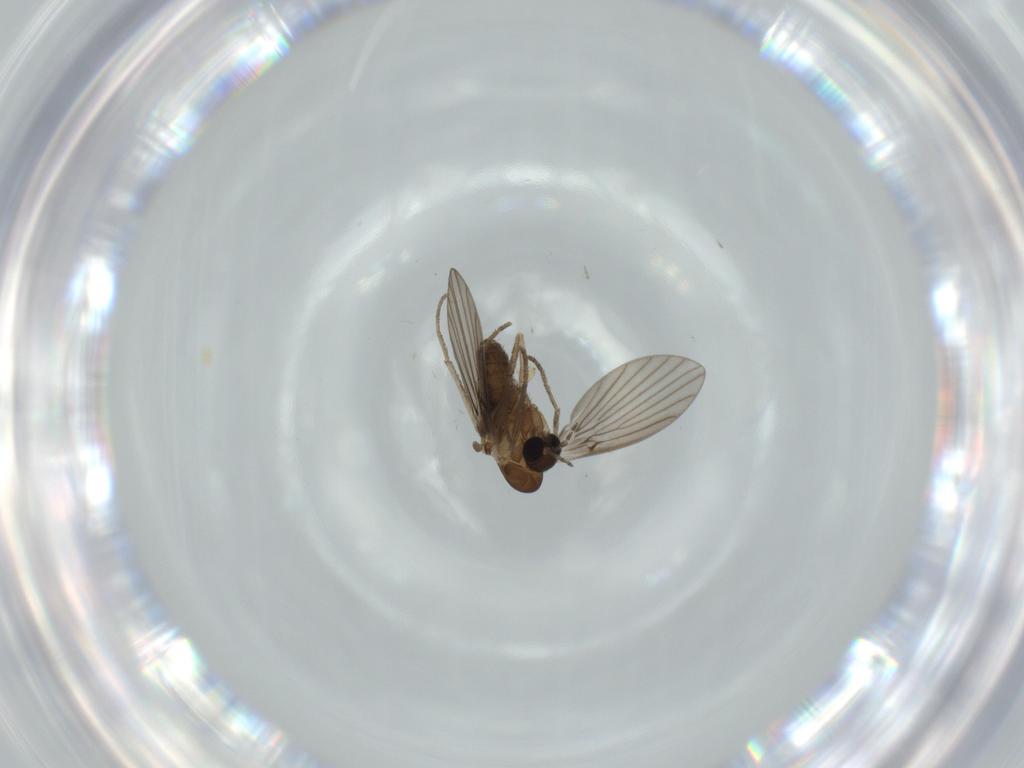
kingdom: Animalia
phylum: Arthropoda
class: Insecta
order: Diptera
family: Psychodidae
